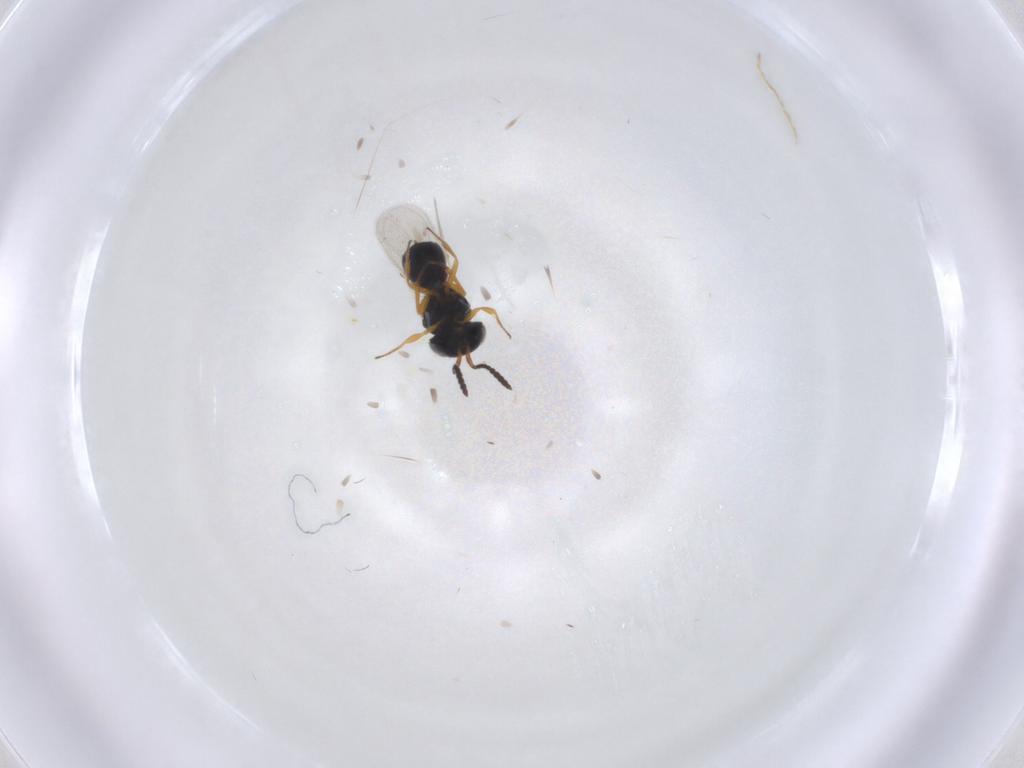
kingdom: Animalia
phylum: Arthropoda
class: Insecta
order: Hymenoptera
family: Scelionidae
